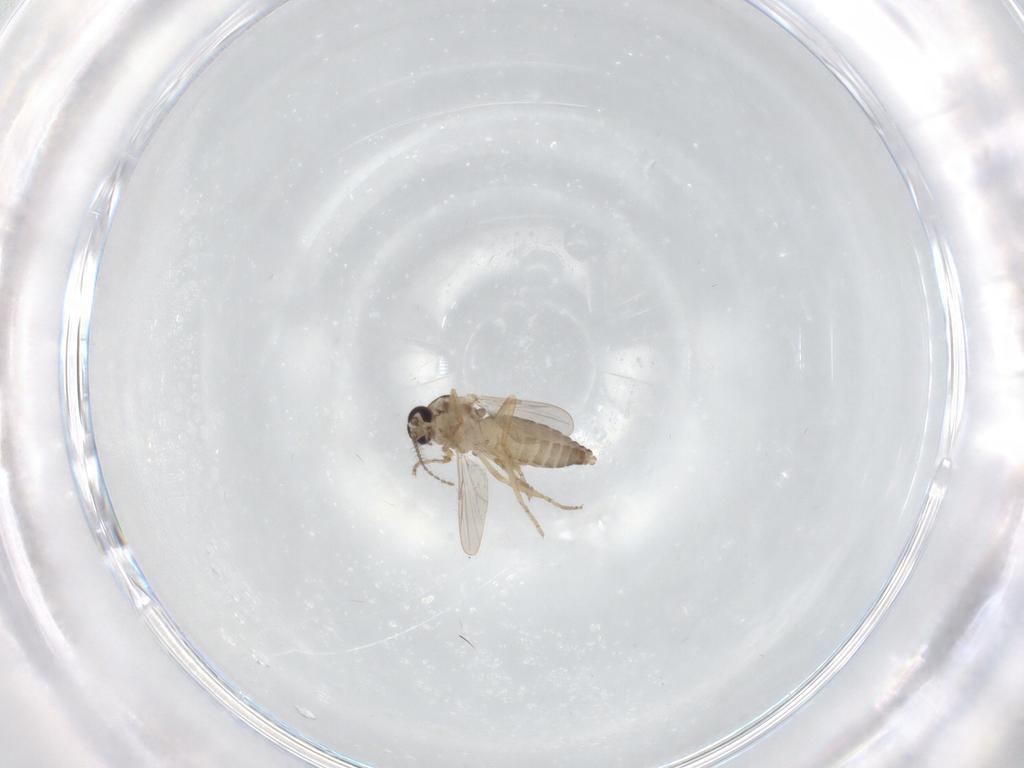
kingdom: Animalia
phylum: Arthropoda
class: Insecta
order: Diptera
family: Ceratopogonidae
